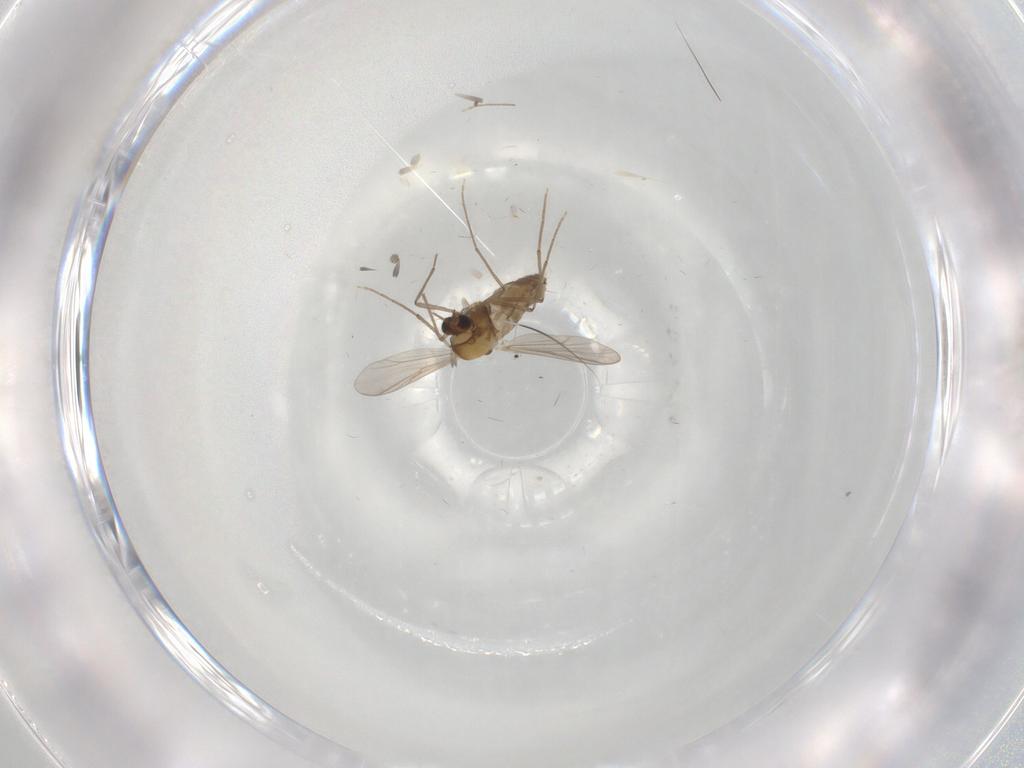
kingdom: Animalia
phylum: Arthropoda
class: Insecta
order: Diptera
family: Chironomidae
